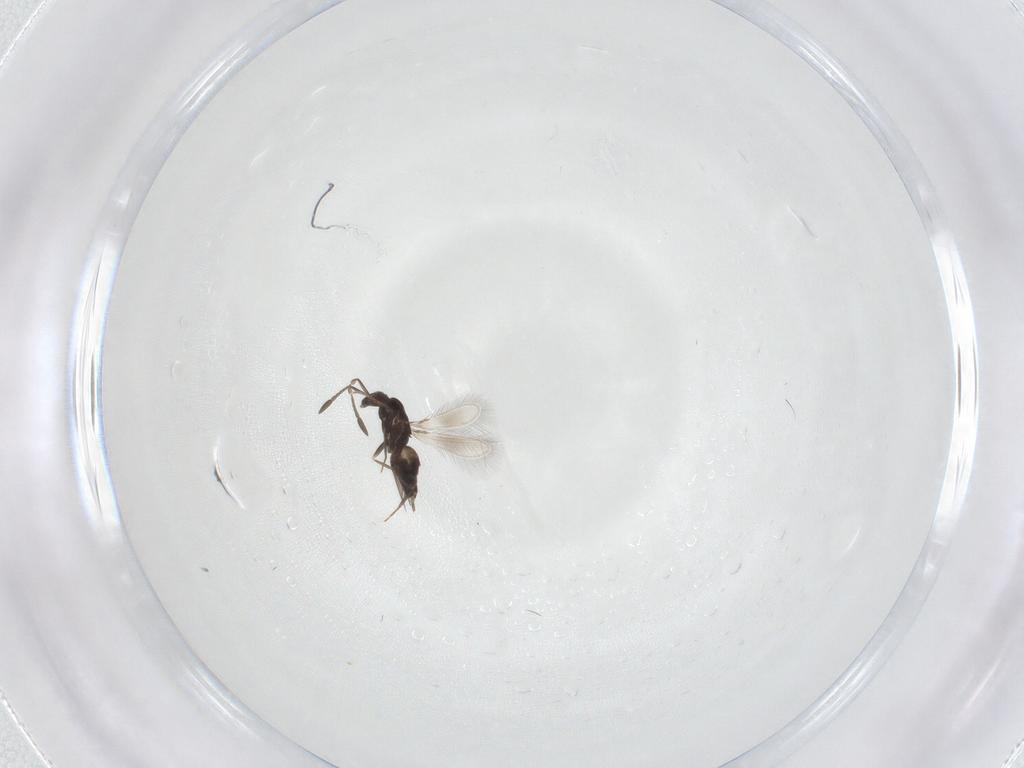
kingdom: Animalia
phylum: Arthropoda
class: Insecta
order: Hymenoptera
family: Mymaridae
